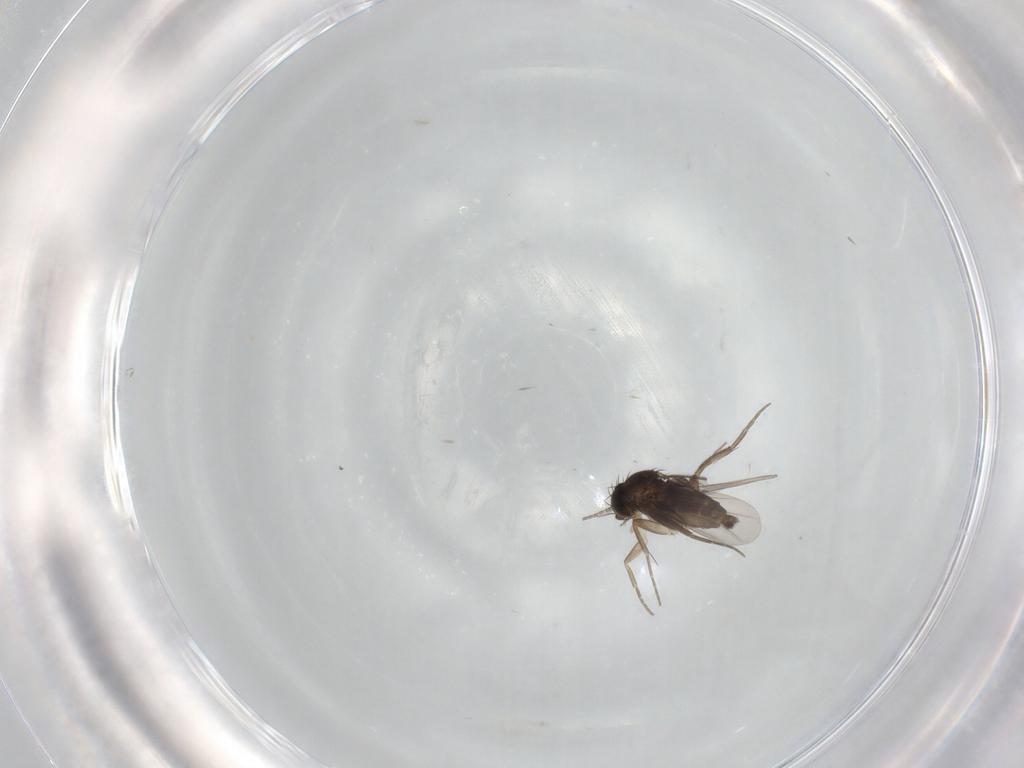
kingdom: Animalia
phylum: Arthropoda
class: Insecta
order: Diptera
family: Phoridae
